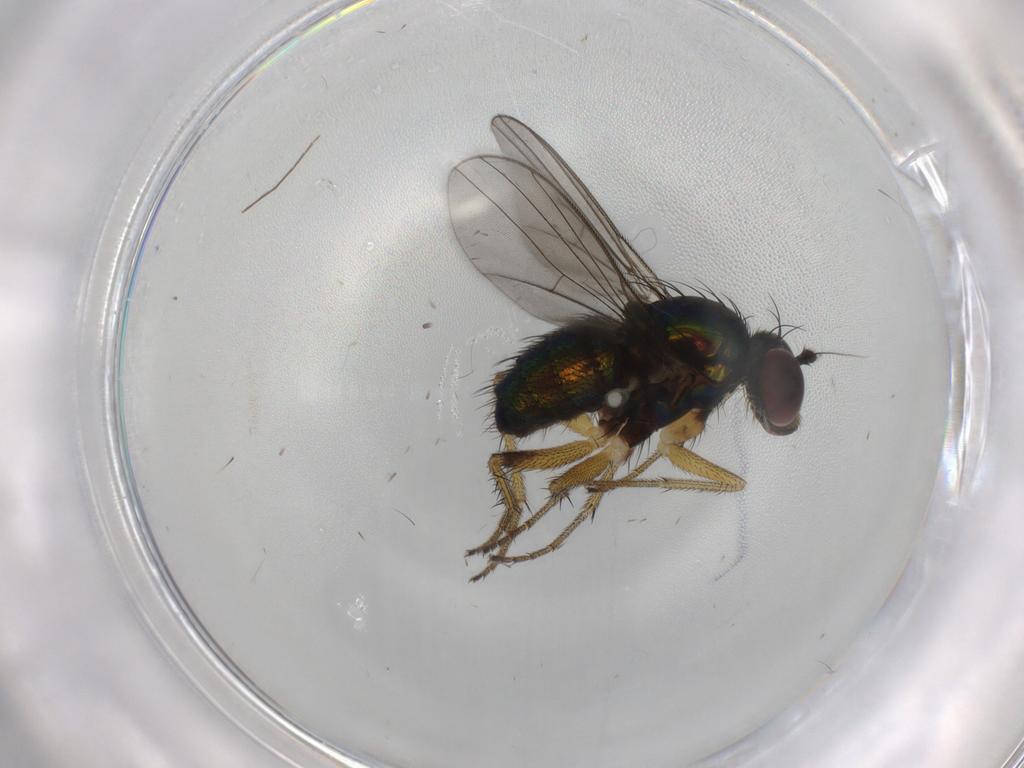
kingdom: Animalia
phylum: Arthropoda
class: Insecta
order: Diptera
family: Dolichopodidae
